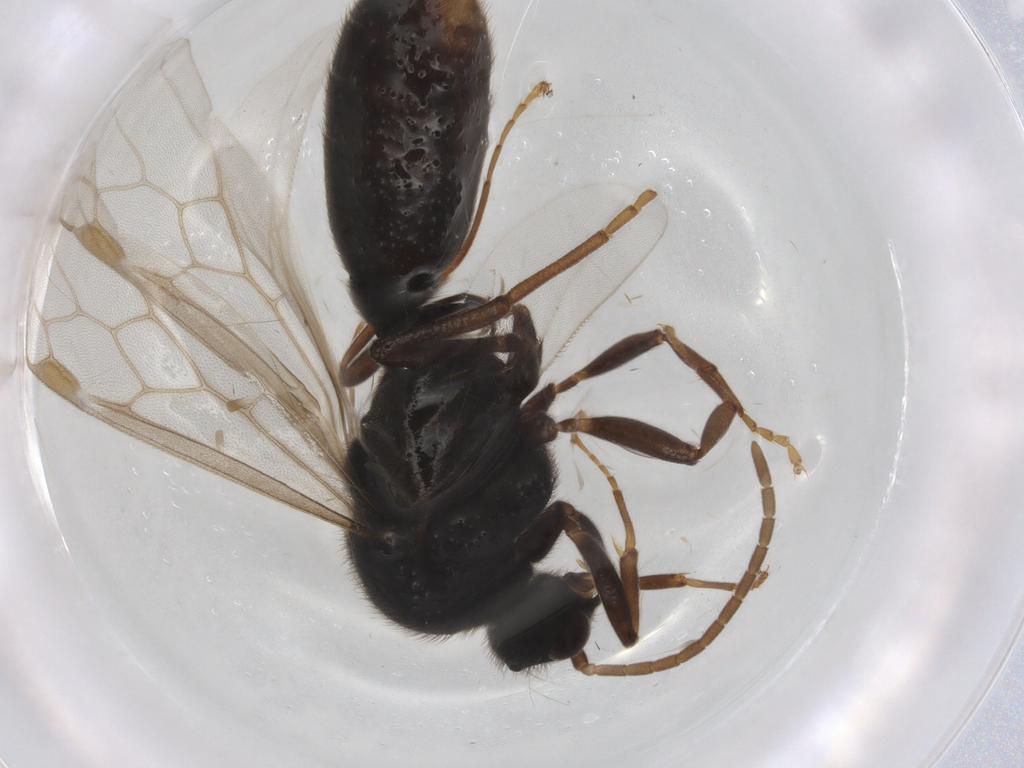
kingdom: Animalia
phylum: Arthropoda
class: Insecta
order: Hymenoptera
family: Formicidae
